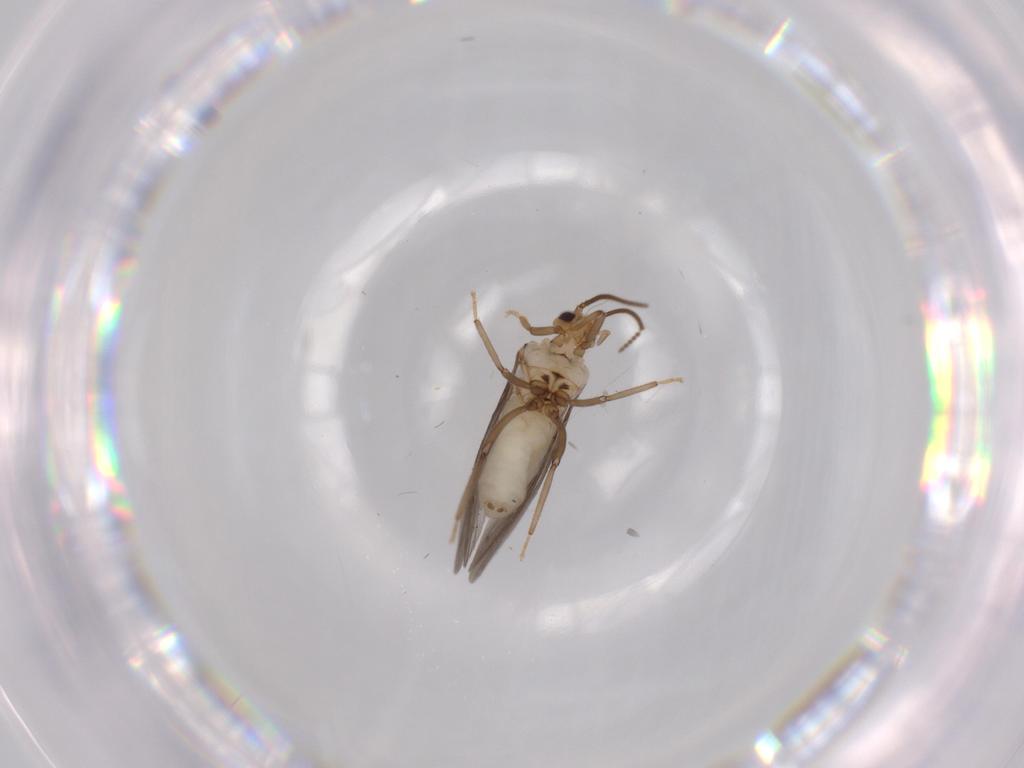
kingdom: Animalia
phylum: Arthropoda
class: Insecta
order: Neuroptera
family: Coniopterygidae
